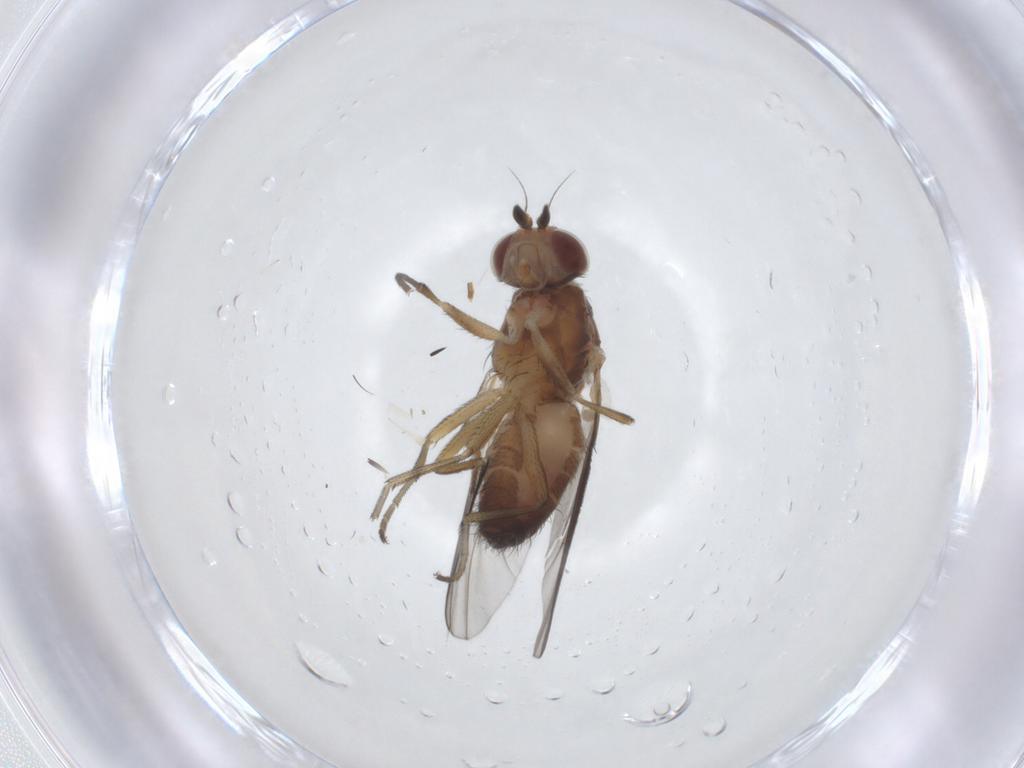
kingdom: Animalia
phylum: Arthropoda
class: Insecta
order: Diptera
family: Heleomyzidae
